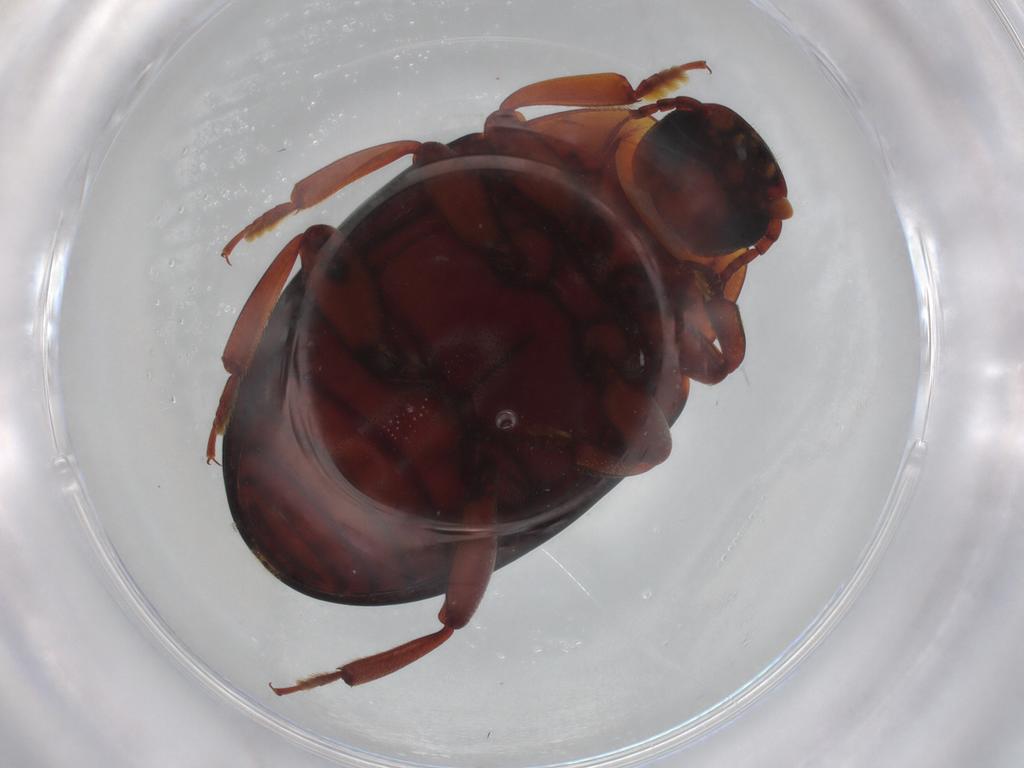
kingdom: Animalia
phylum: Arthropoda
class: Insecta
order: Coleoptera
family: Zopheridae
